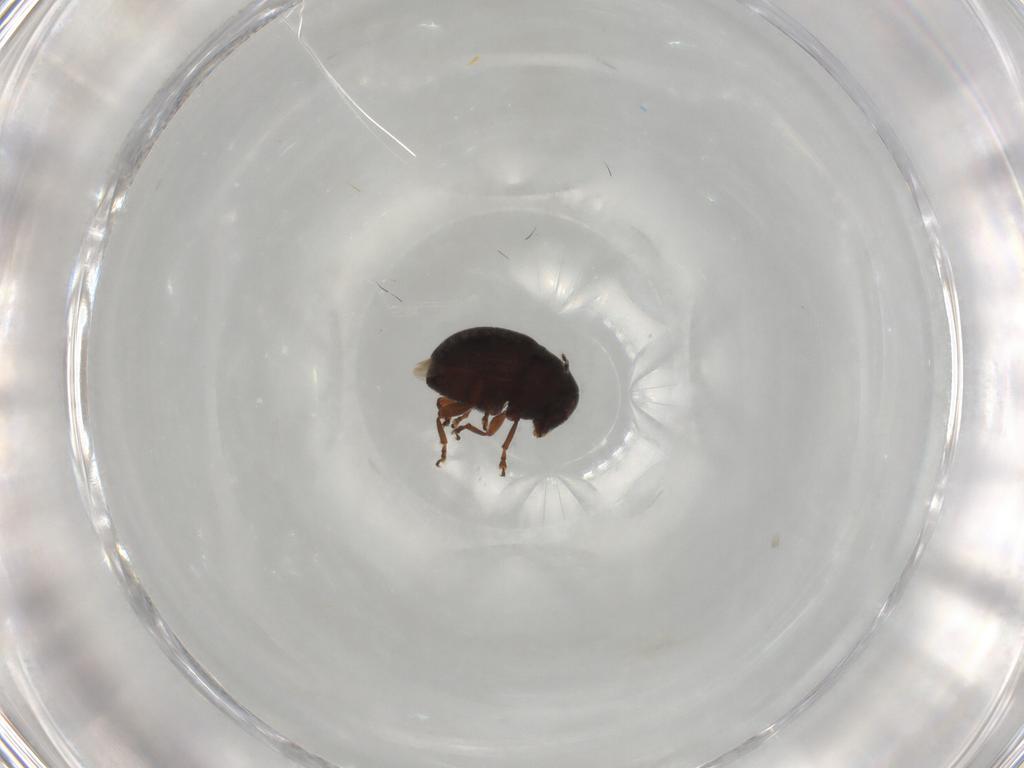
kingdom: Animalia
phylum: Arthropoda
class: Insecta
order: Coleoptera
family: Anthribidae
